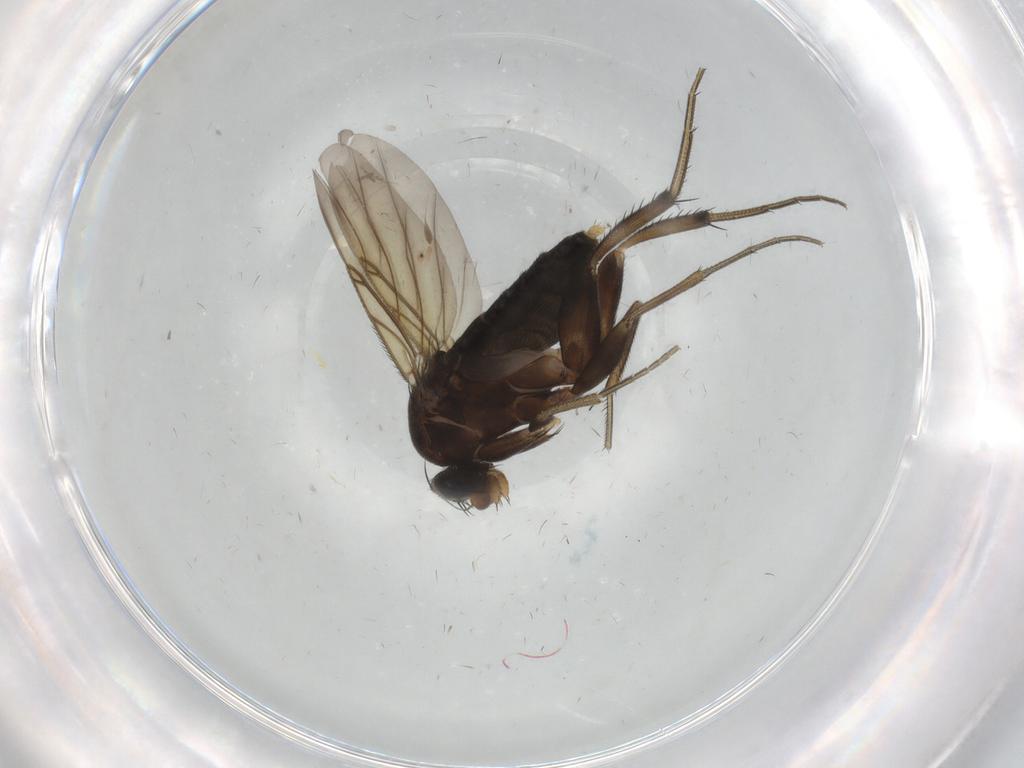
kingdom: Animalia
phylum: Arthropoda
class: Insecta
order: Diptera
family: Phoridae
